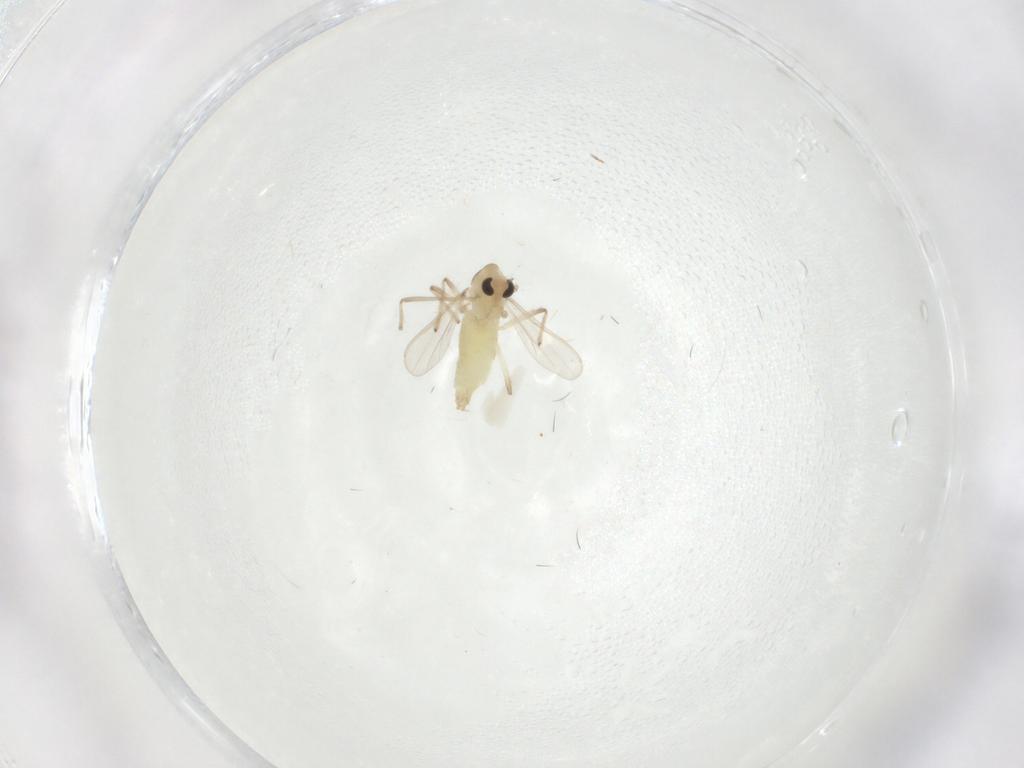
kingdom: Animalia
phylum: Arthropoda
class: Insecta
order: Diptera
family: Chironomidae
